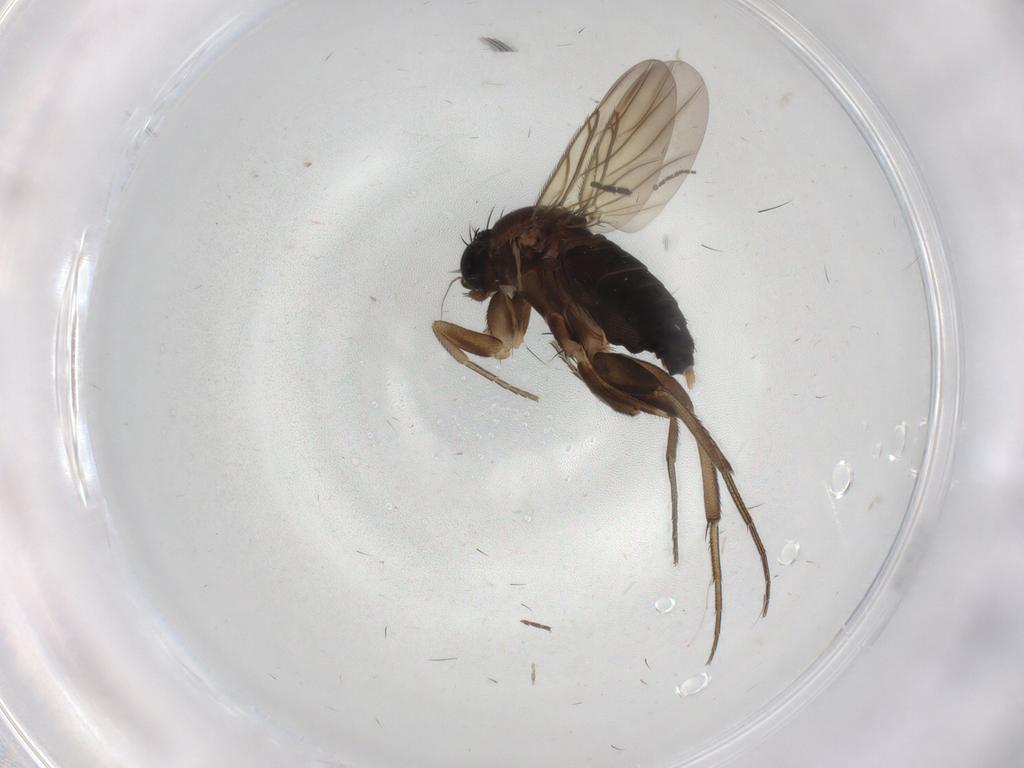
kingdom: Animalia
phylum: Arthropoda
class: Insecta
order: Diptera
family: Phoridae
